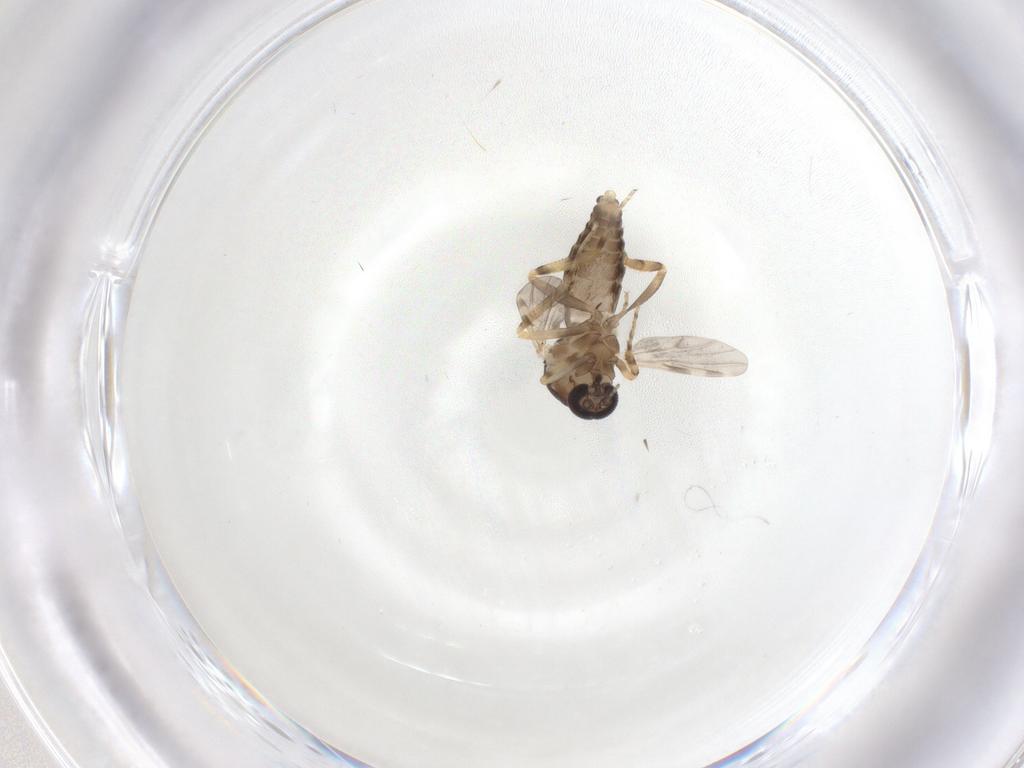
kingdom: Animalia
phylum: Arthropoda
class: Insecta
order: Diptera
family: Ceratopogonidae
